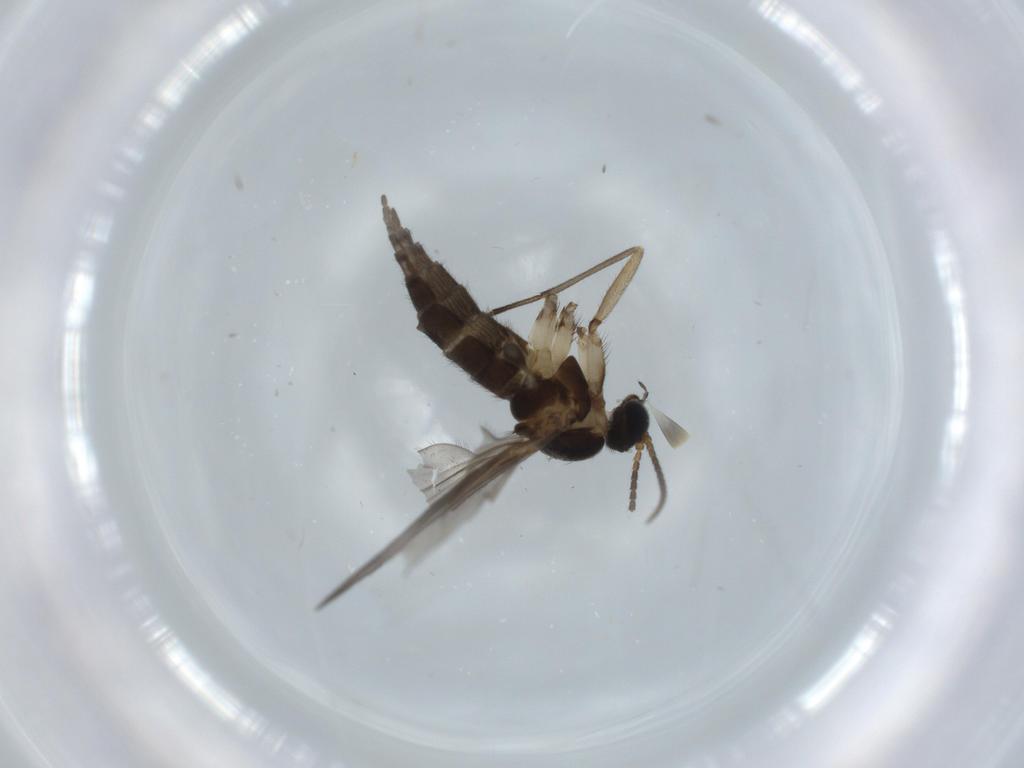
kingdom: Animalia
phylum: Arthropoda
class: Insecta
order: Diptera
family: Sciaridae
